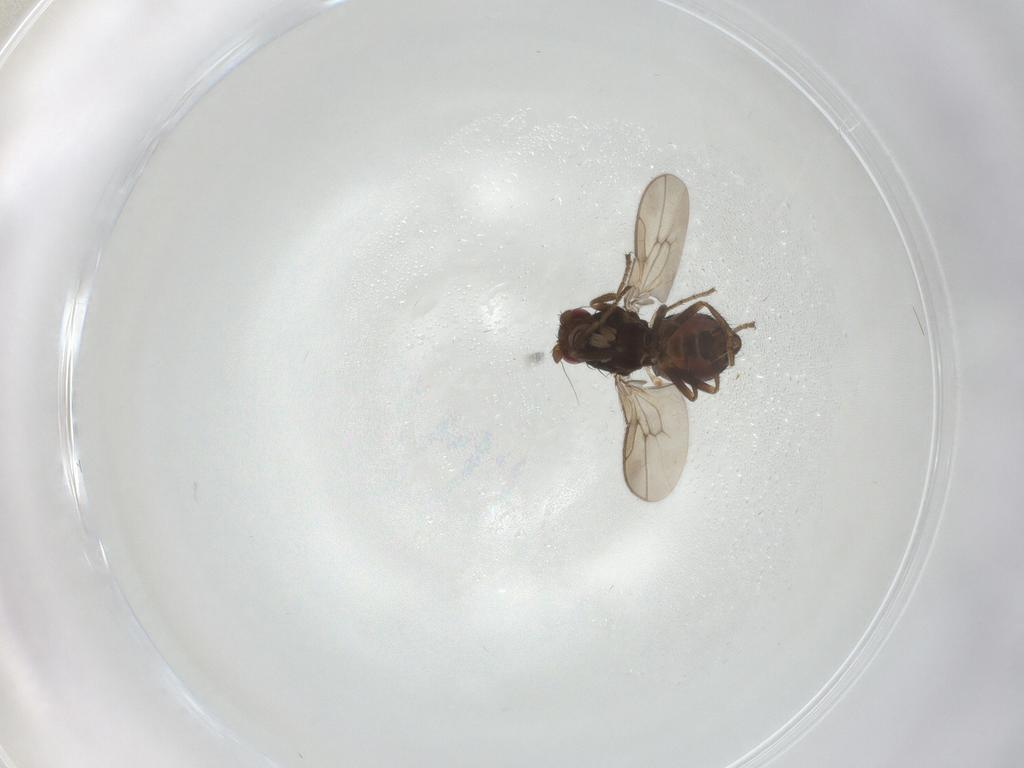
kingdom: Animalia
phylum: Arthropoda
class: Insecta
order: Diptera
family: Sphaeroceridae
